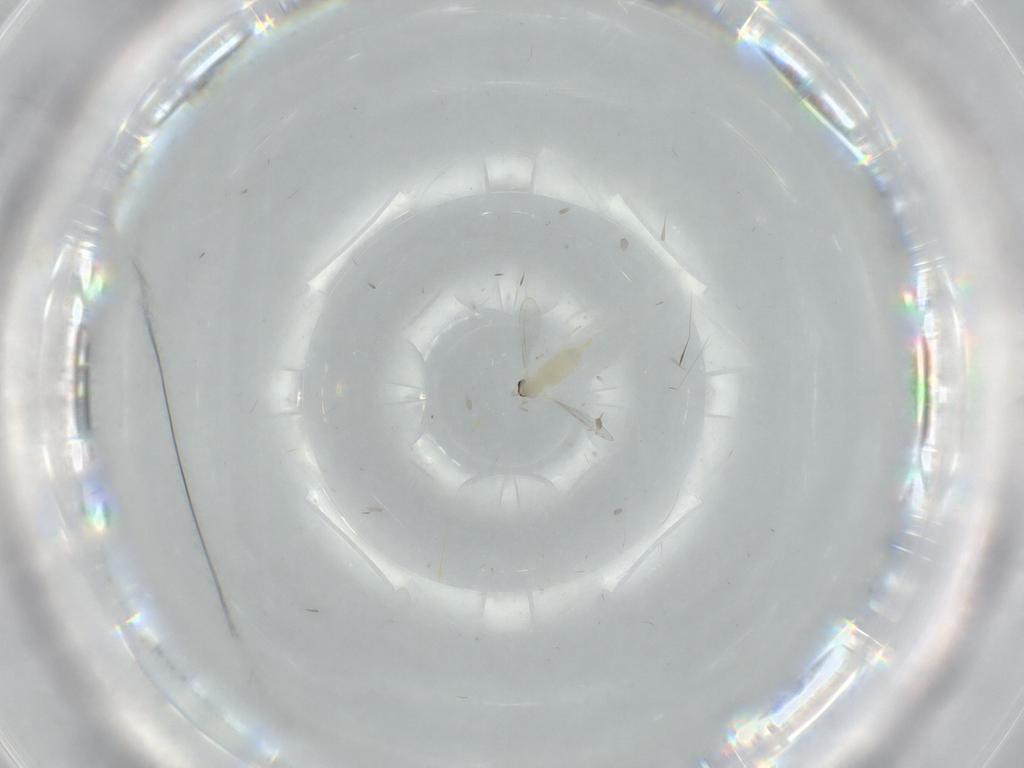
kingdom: Animalia
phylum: Arthropoda
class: Insecta
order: Diptera
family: Cecidomyiidae
